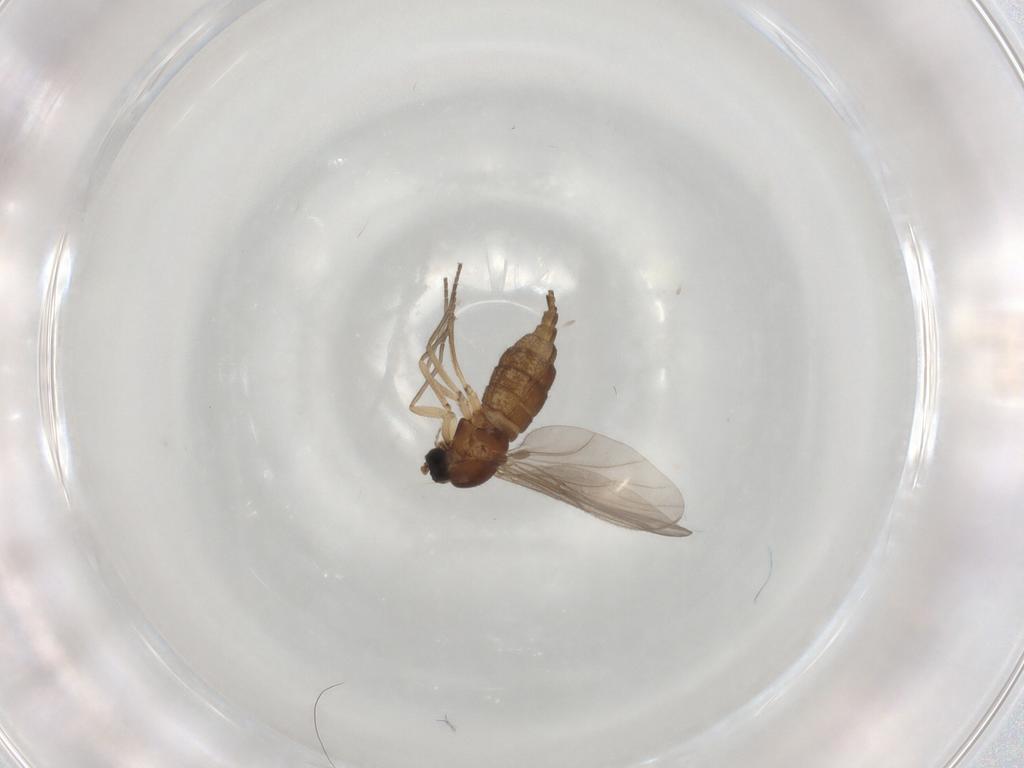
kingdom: Animalia
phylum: Arthropoda
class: Insecta
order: Diptera
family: Sciaridae
